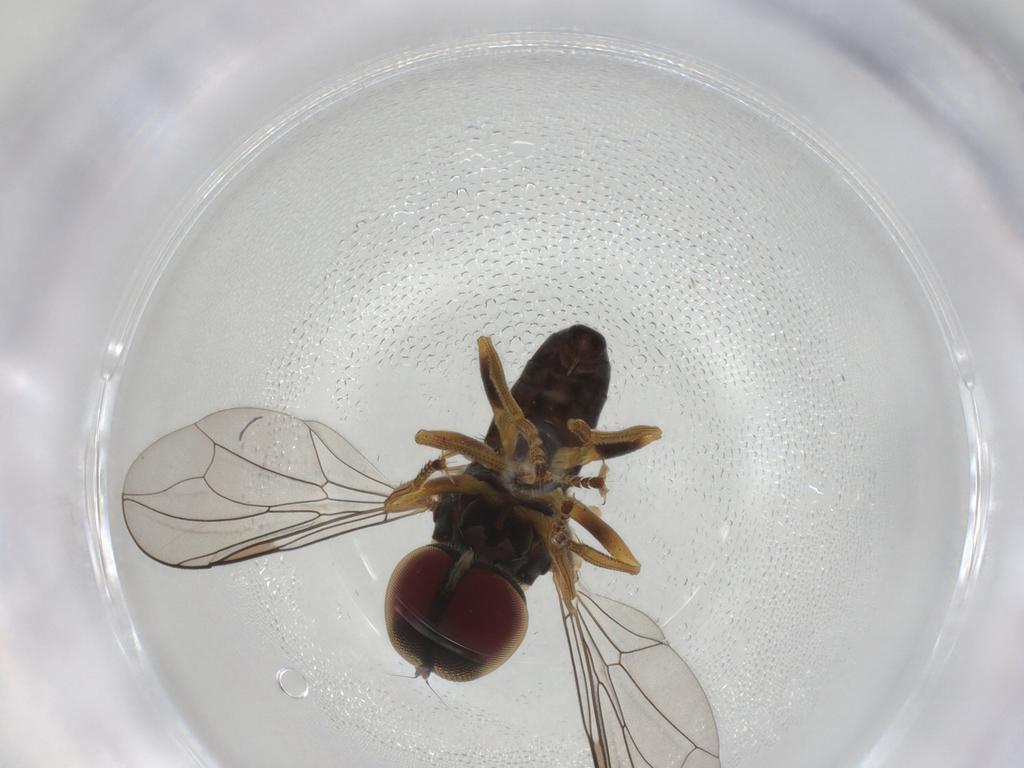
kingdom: Animalia
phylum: Arthropoda
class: Insecta
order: Diptera
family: Pipunculidae
